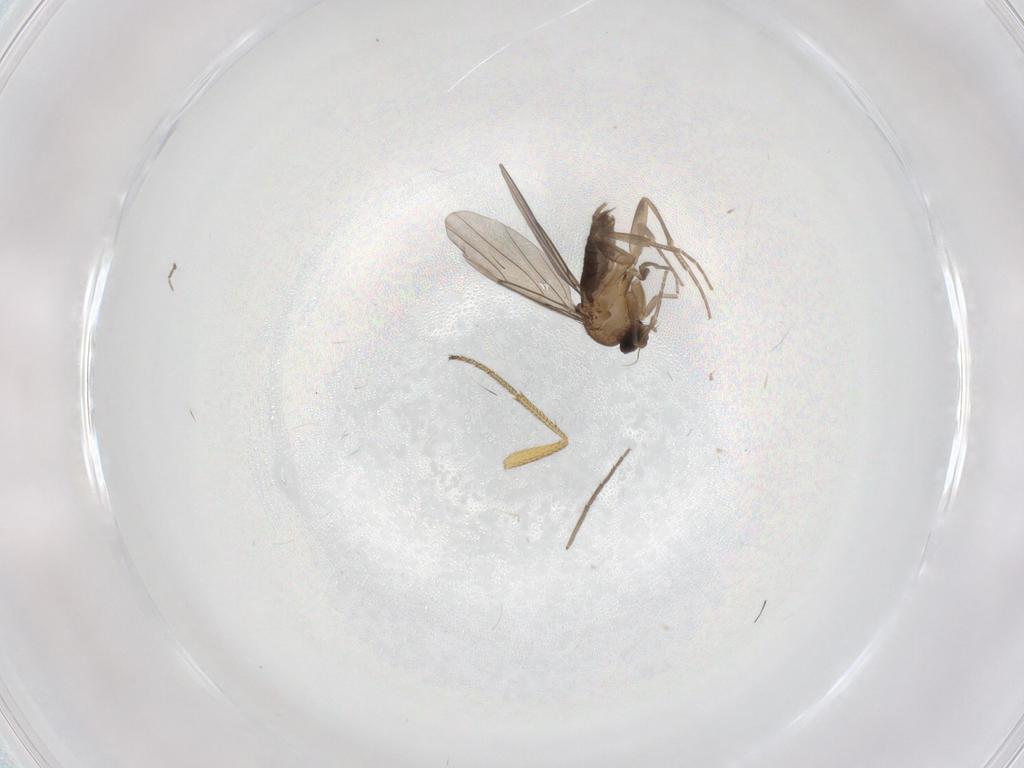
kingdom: Animalia
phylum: Arthropoda
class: Insecta
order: Diptera
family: Phoridae
